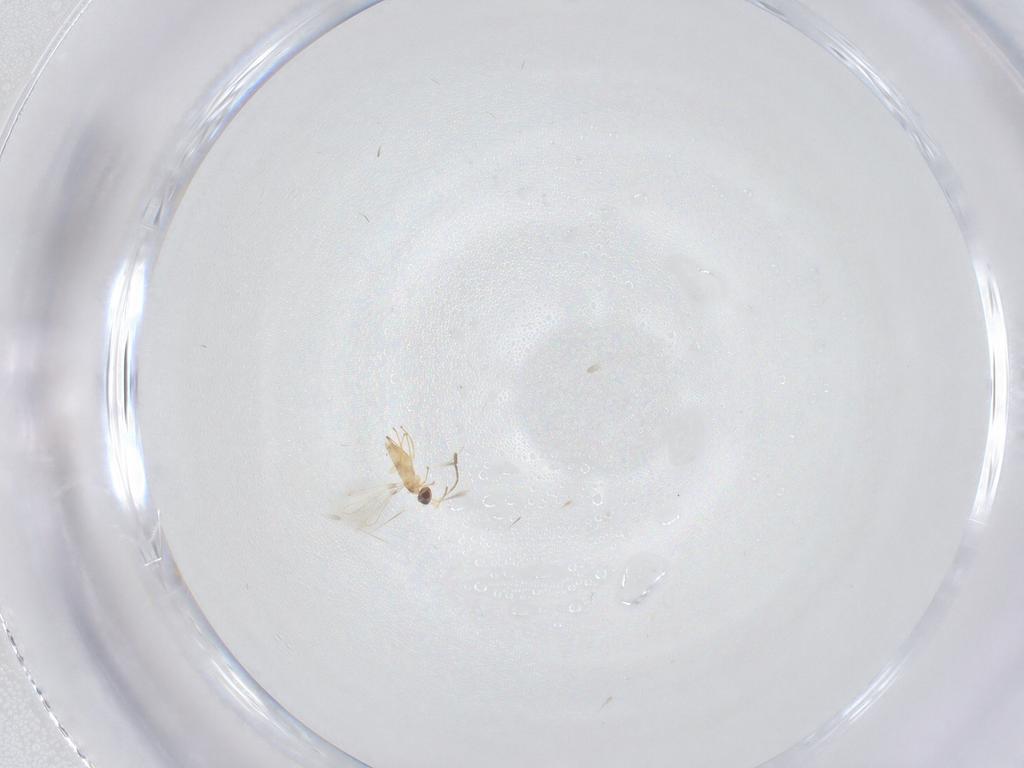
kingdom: Animalia
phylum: Arthropoda
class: Insecta
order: Hymenoptera
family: Mymaridae
